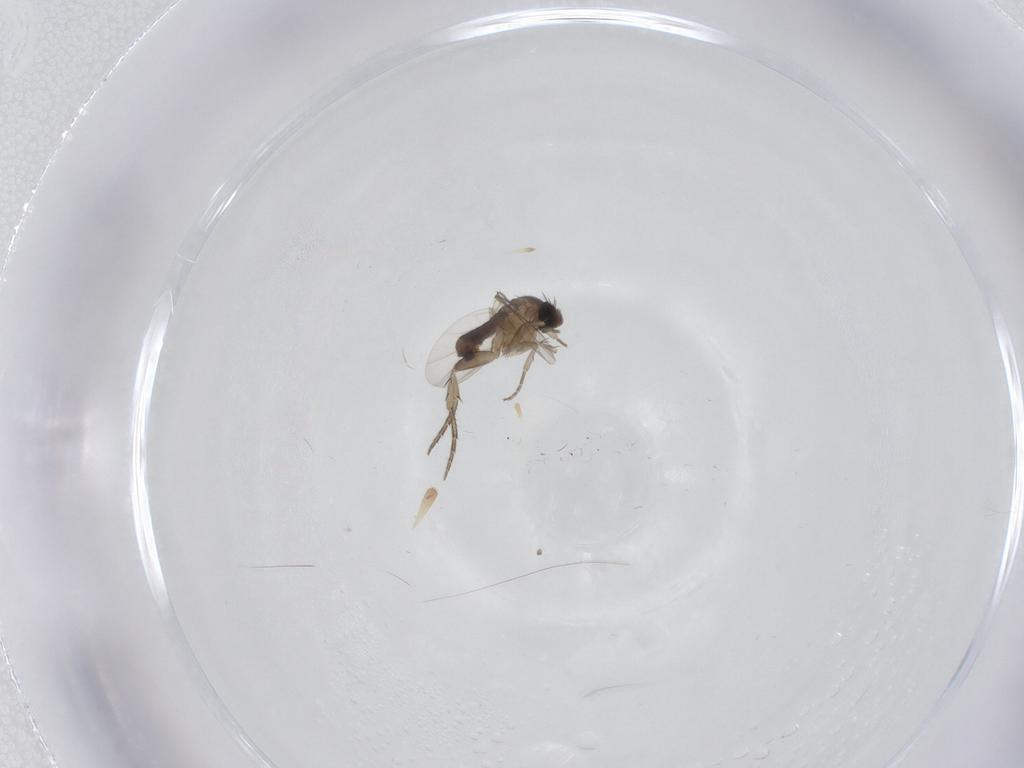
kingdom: Animalia
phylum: Arthropoda
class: Insecta
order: Diptera
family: Phoridae
